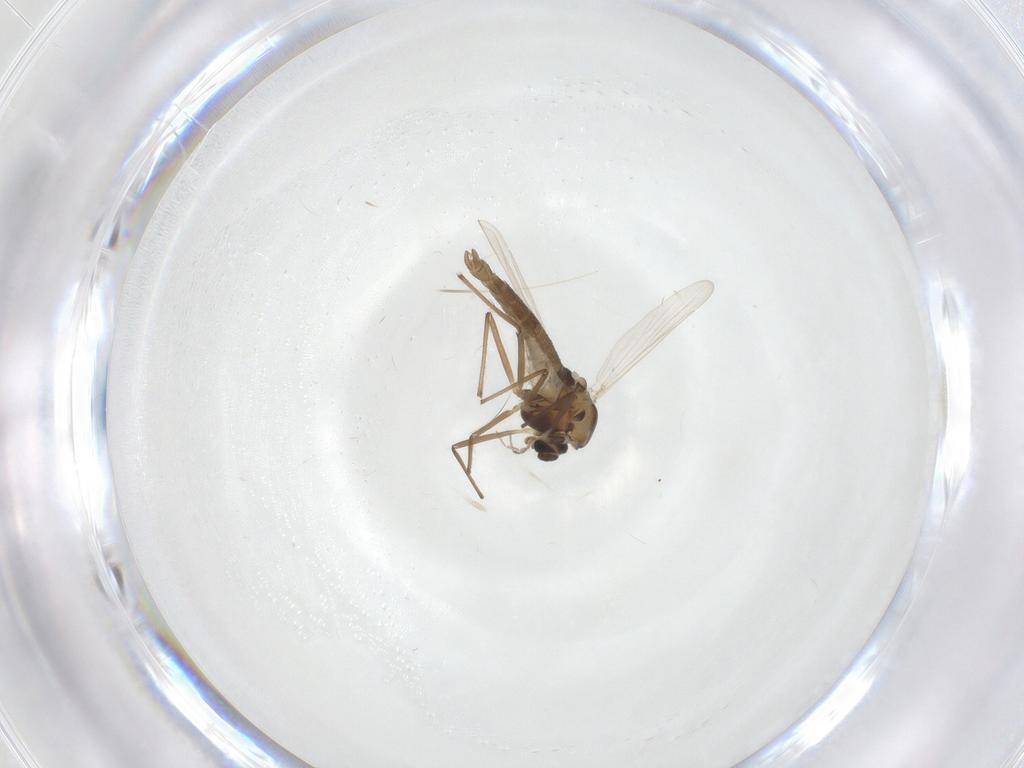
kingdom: Animalia
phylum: Arthropoda
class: Insecta
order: Diptera
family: Chironomidae
